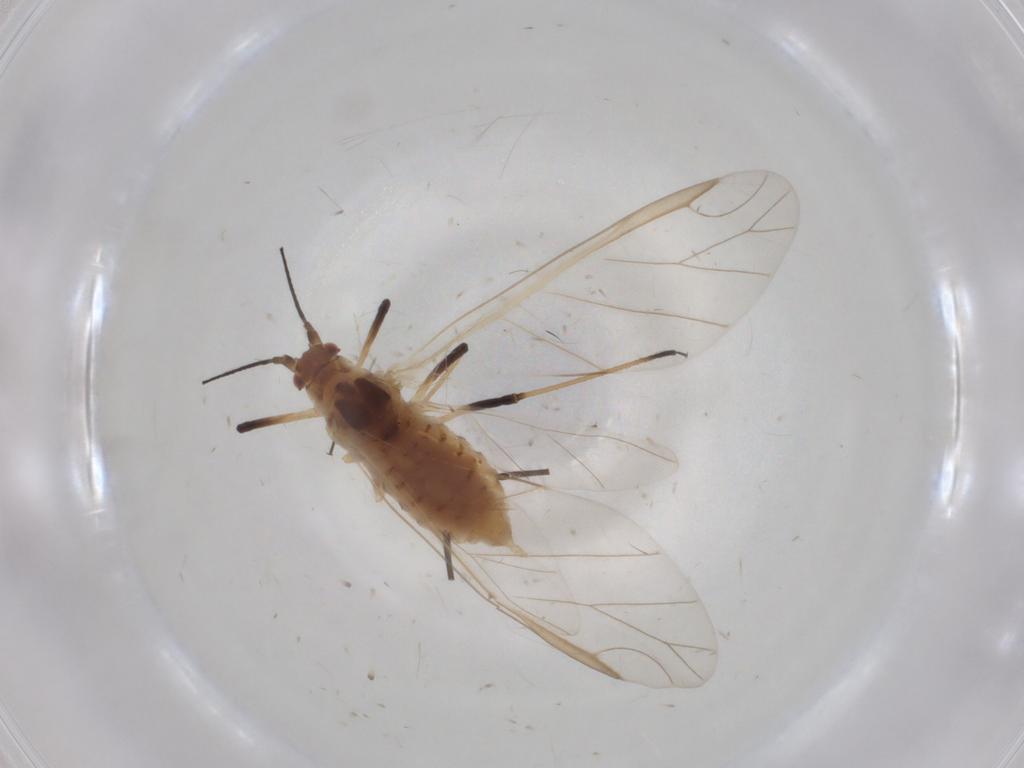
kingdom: Animalia
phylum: Arthropoda
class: Insecta
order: Hemiptera
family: Aphididae
